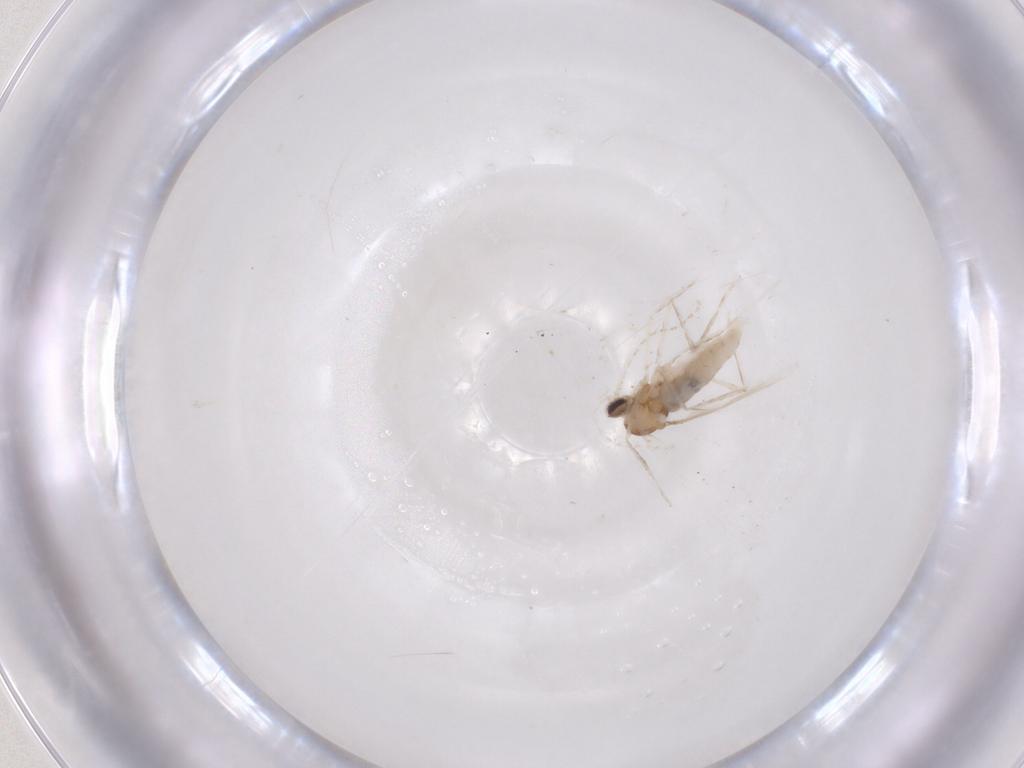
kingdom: Animalia
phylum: Arthropoda
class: Insecta
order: Diptera
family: Cecidomyiidae
